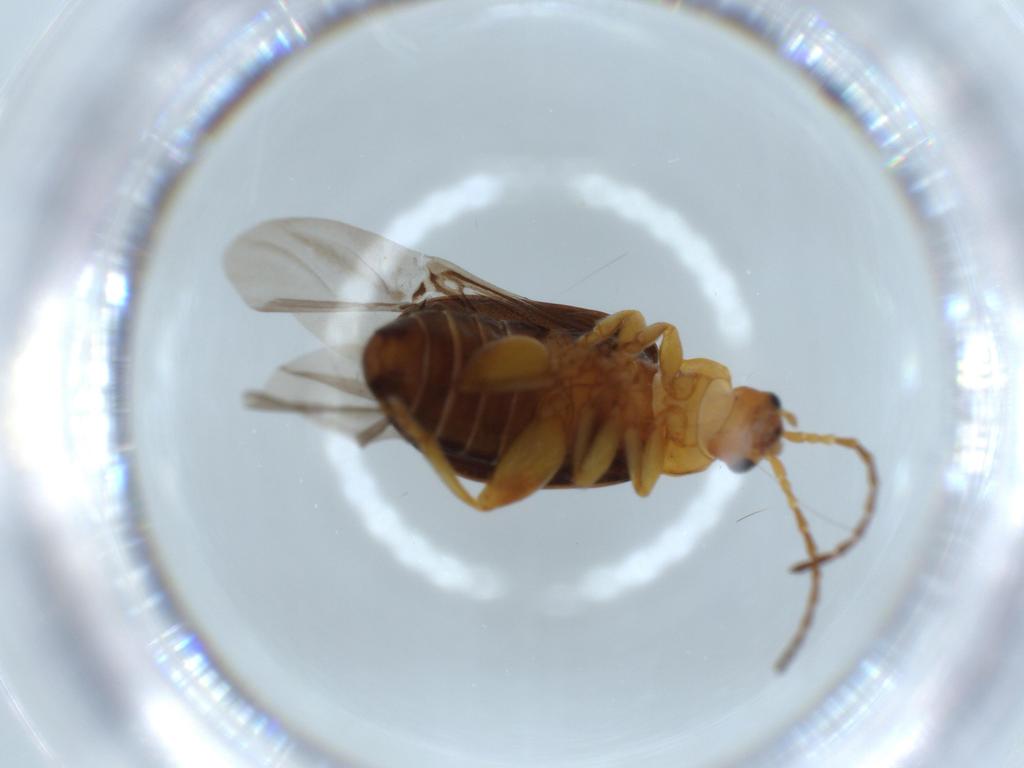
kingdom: Animalia
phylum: Arthropoda
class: Insecta
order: Coleoptera
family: Chrysomelidae
